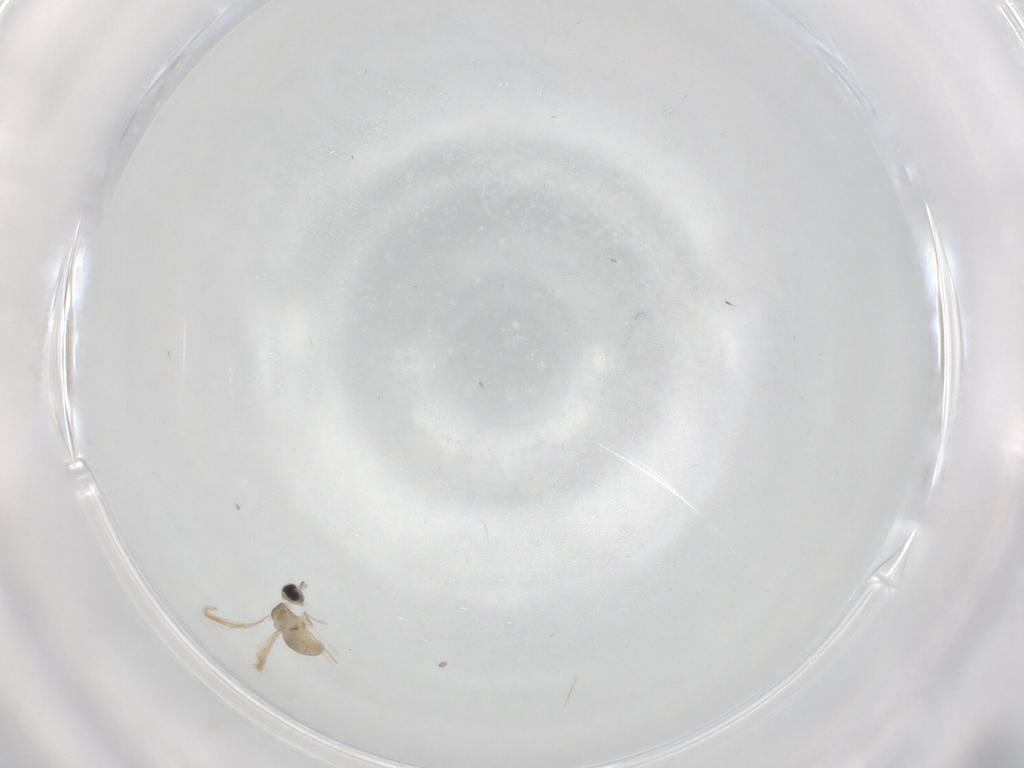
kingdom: Animalia
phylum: Arthropoda
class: Insecta
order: Diptera
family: Cecidomyiidae
